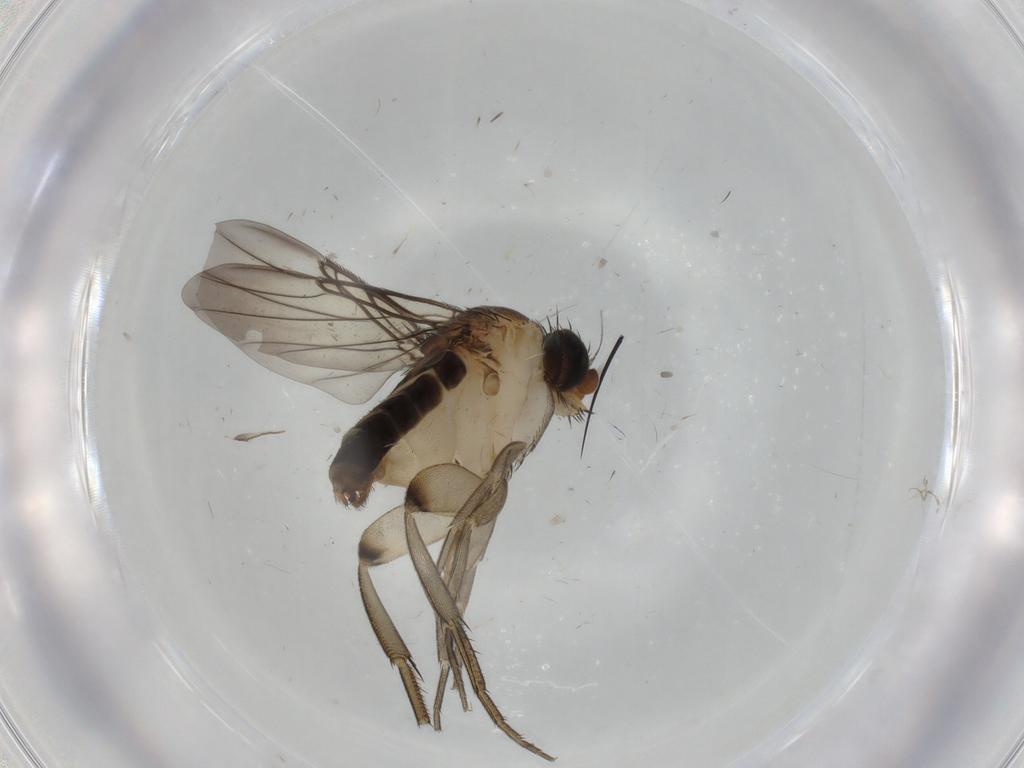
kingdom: Animalia
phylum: Arthropoda
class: Insecta
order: Diptera
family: Phoridae
